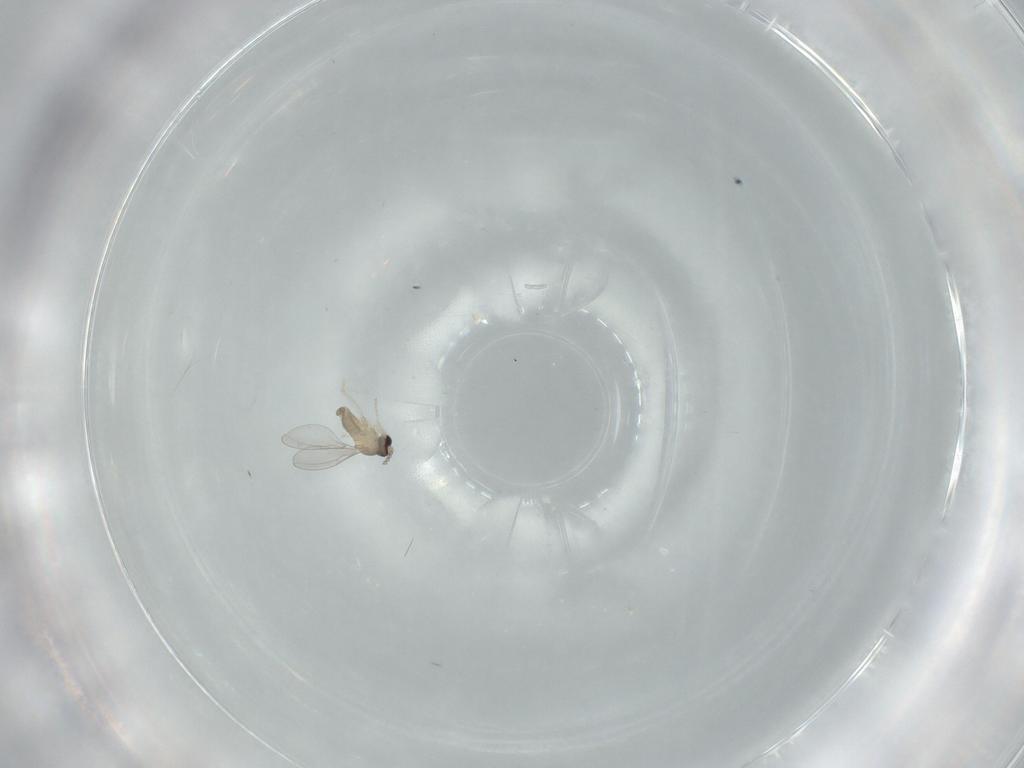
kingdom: Animalia
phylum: Arthropoda
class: Insecta
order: Diptera
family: Cecidomyiidae
